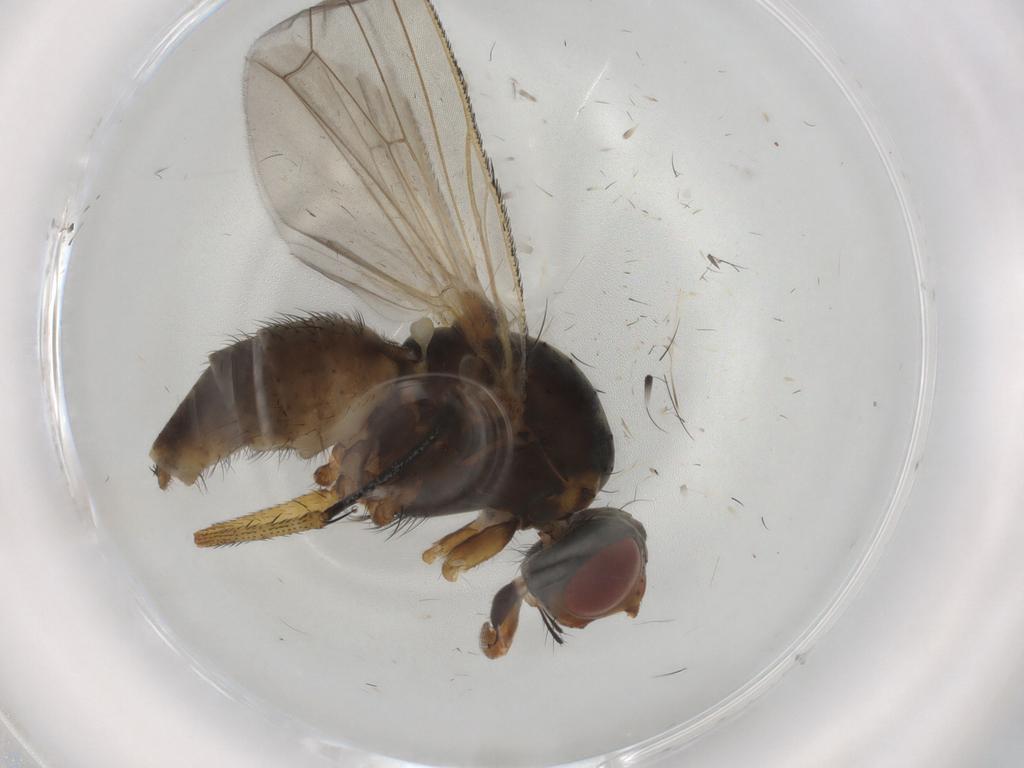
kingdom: Animalia
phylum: Arthropoda
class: Insecta
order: Diptera
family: Anthomyiidae
